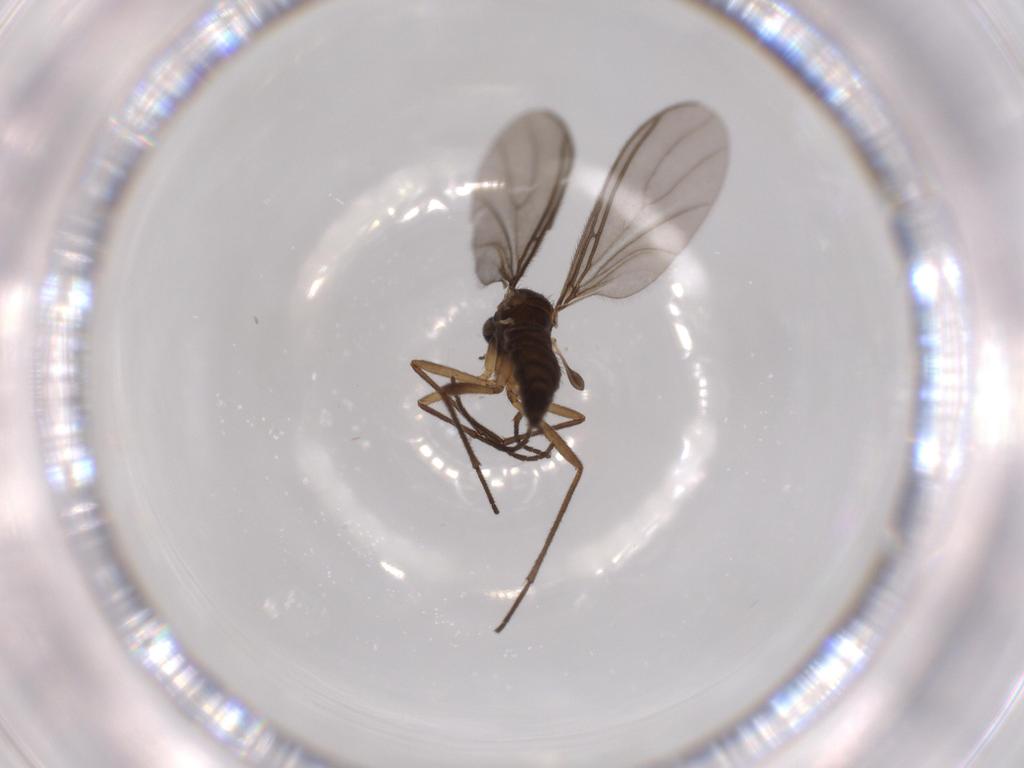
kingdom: Animalia
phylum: Arthropoda
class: Insecta
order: Diptera
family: Sciaridae
